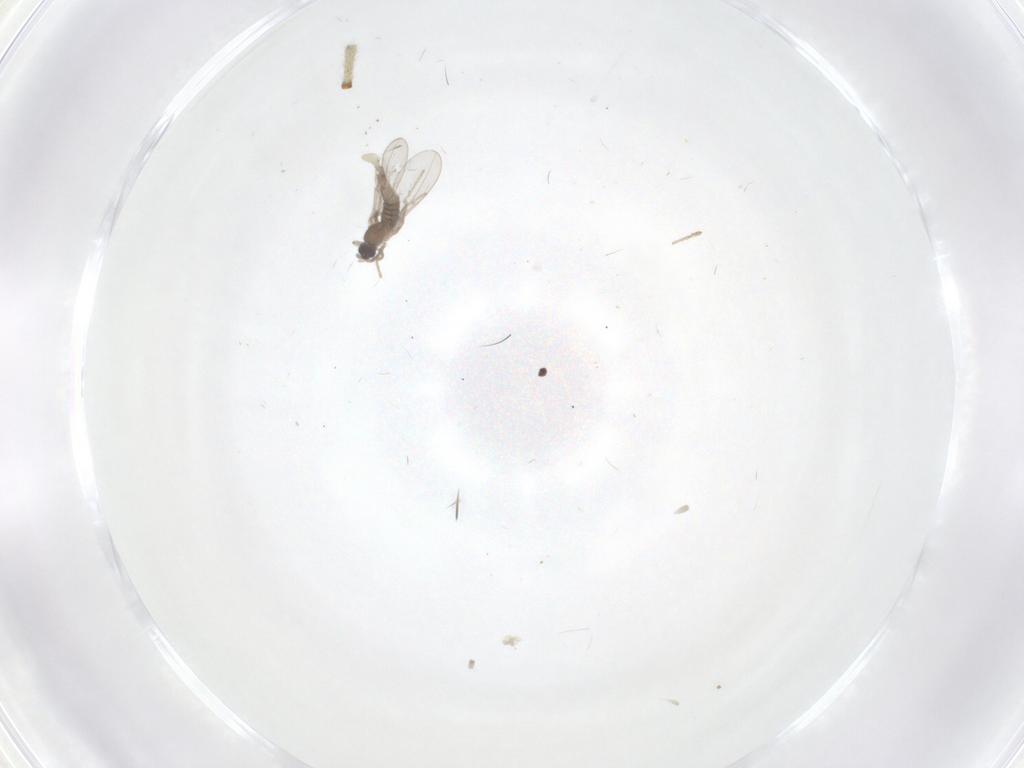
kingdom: Animalia
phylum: Arthropoda
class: Insecta
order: Diptera
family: Cecidomyiidae
